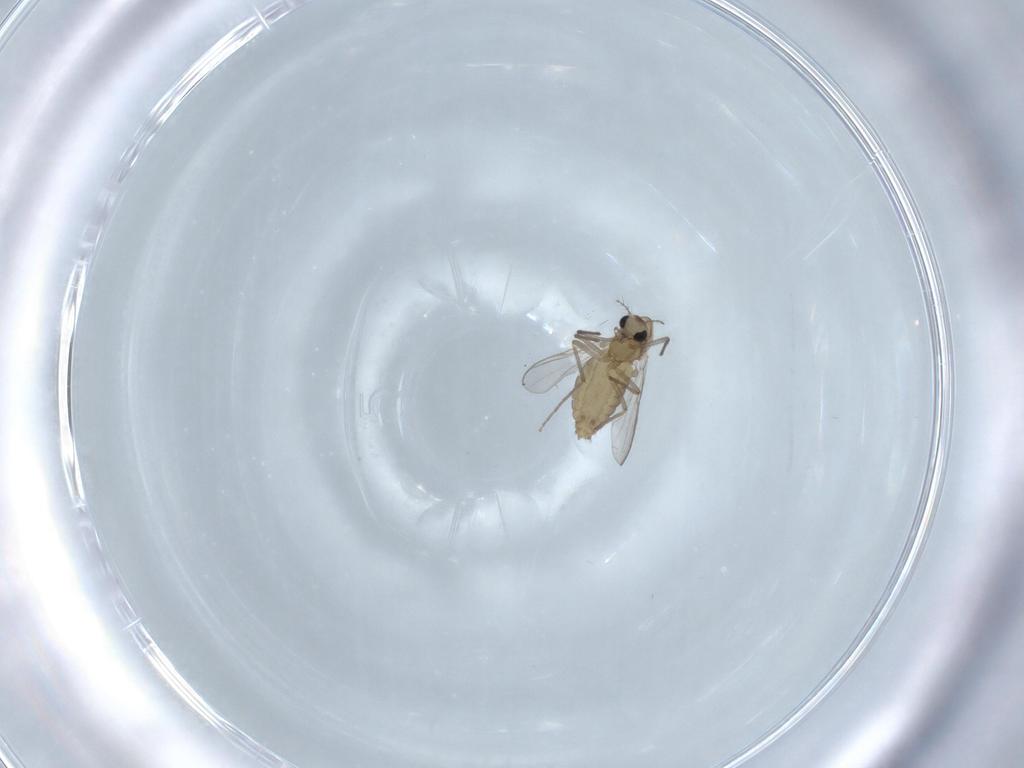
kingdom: Animalia
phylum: Arthropoda
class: Insecta
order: Diptera
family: Chironomidae
